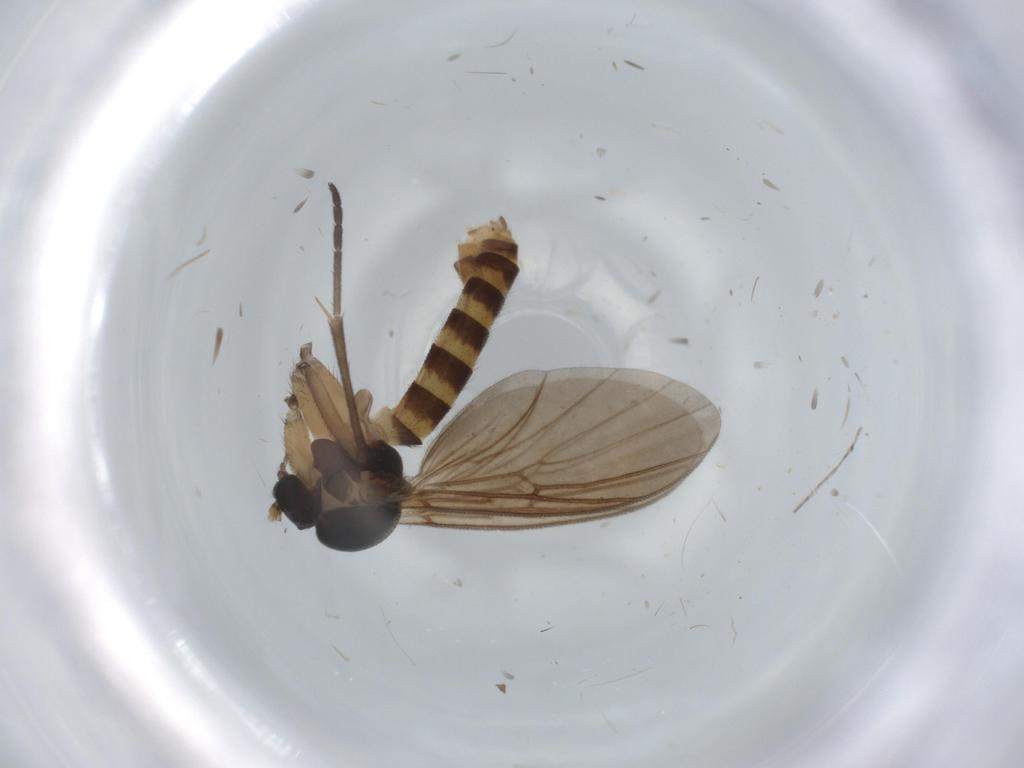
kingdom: Animalia
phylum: Arthropoda
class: Insecta
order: Diptera
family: Mycetophilidae
